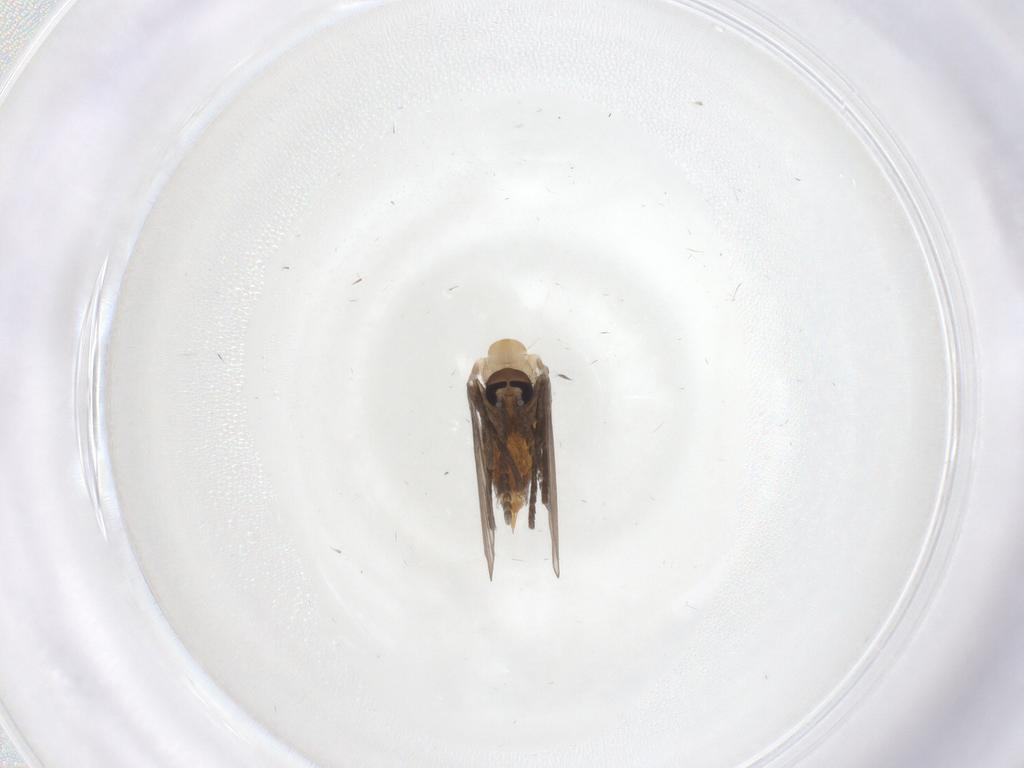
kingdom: Animalia
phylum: Arthropoda
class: Insecta
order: Diptera
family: Psychodidae
